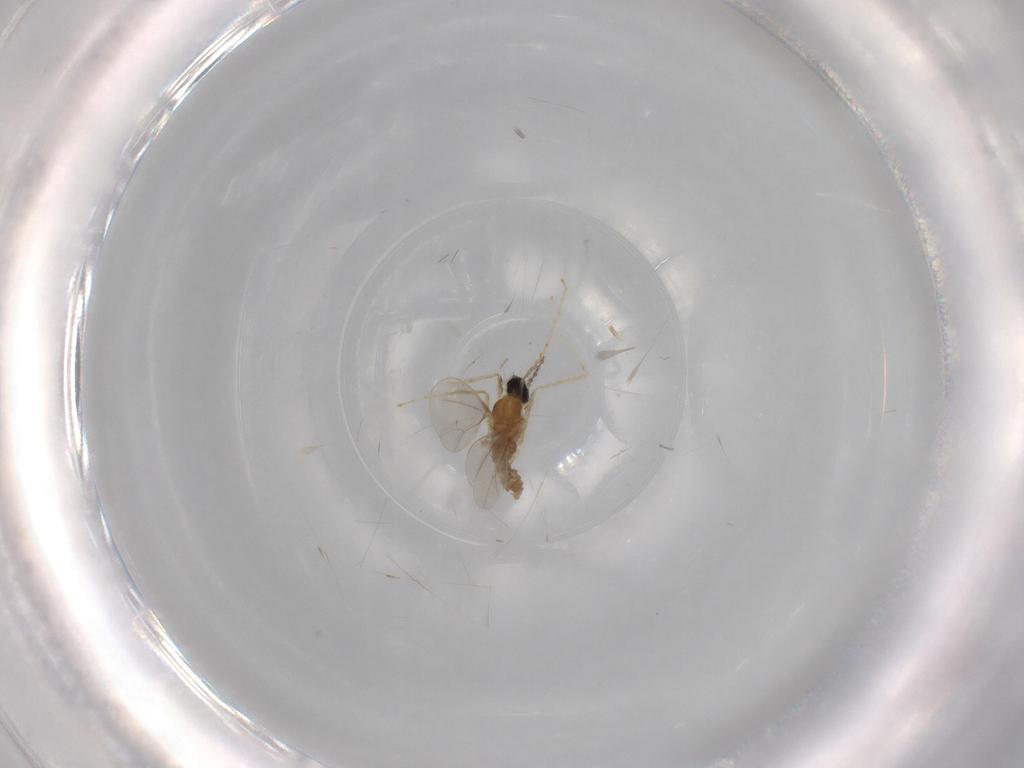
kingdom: Animalia
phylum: Arthropoda
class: Insecta
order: Diptera
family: Cecidomyiidae
